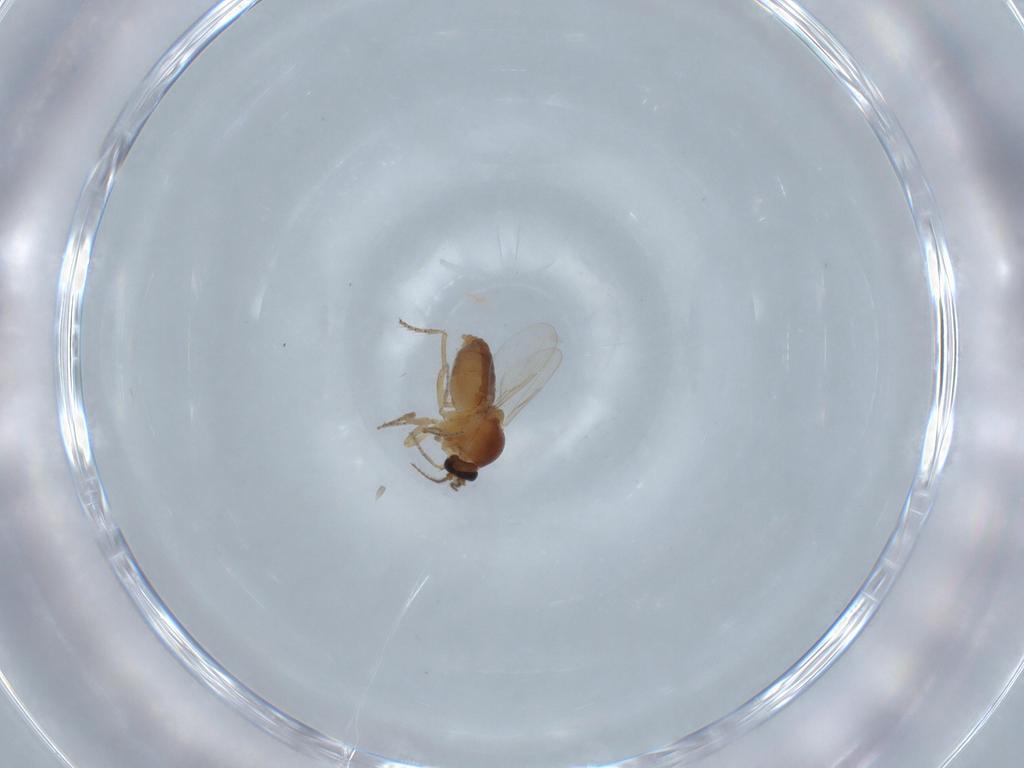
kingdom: Animalia
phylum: Arthropoda
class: Insecta
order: Diptera
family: Ceratopogonidae
